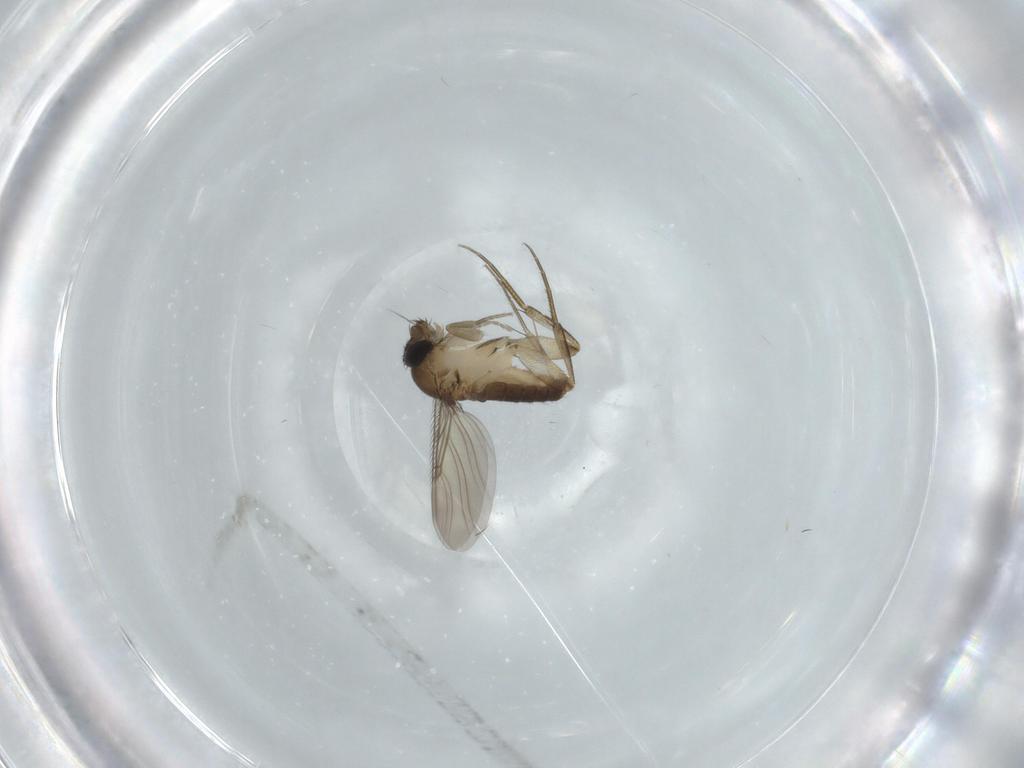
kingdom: Animalia
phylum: Arthropoda
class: Insecta
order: Diptera
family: Phoridae
